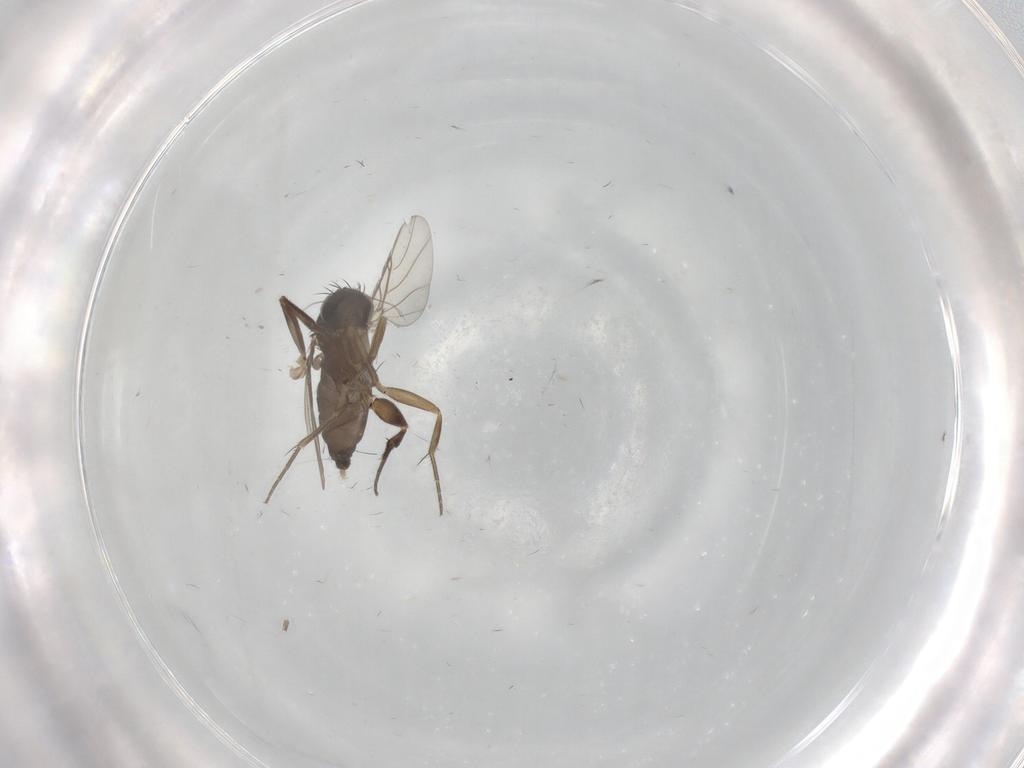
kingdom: Animalia
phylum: Arthropoda
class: Insecta
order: Diptera
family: Phoridae
